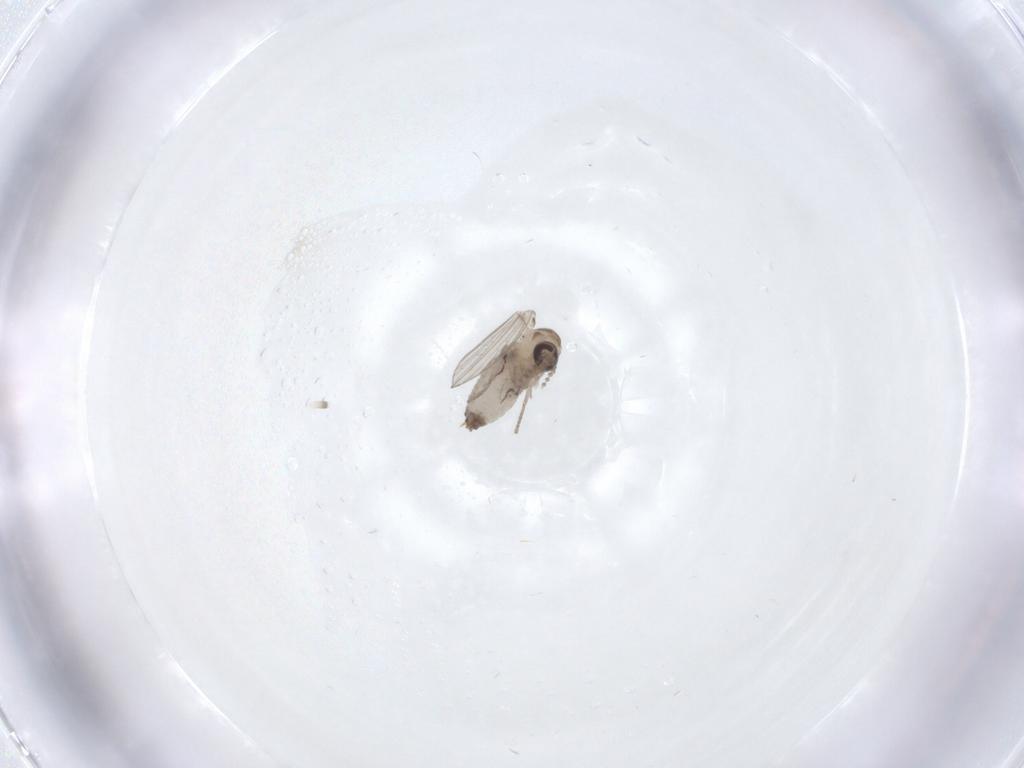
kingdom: Animalia
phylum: Arthropoda
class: Insecta
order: Diptera
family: Psychodidae
